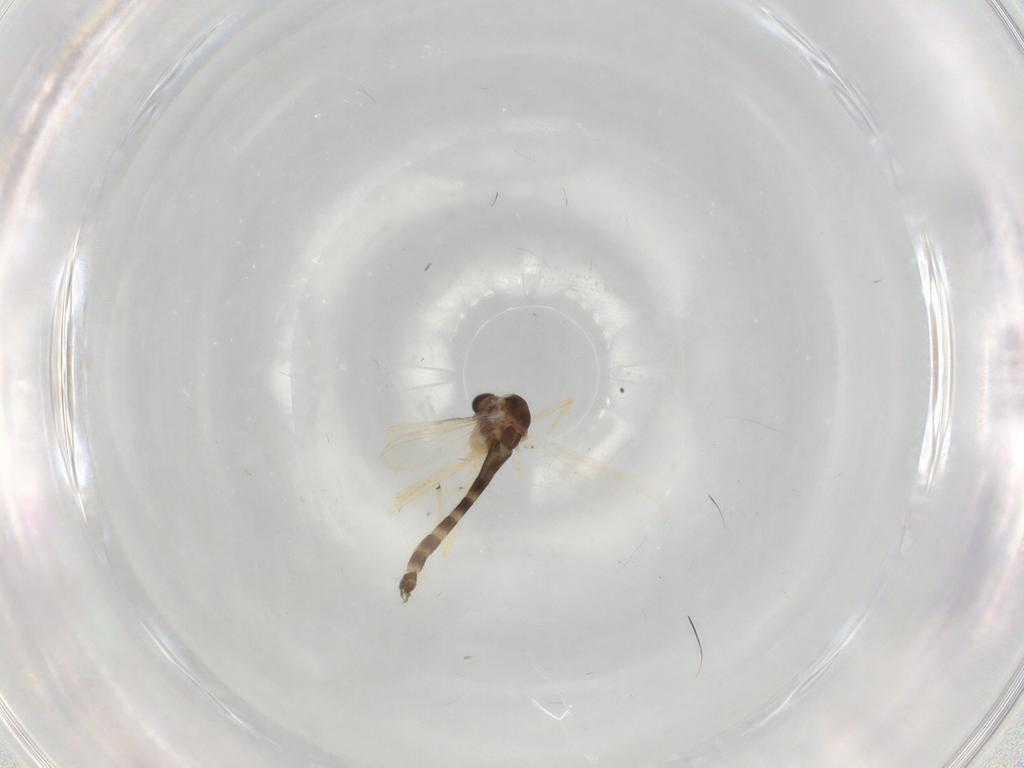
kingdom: Animalia
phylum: Arthropoda
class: Insecta
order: Diptera
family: Chironomidae
